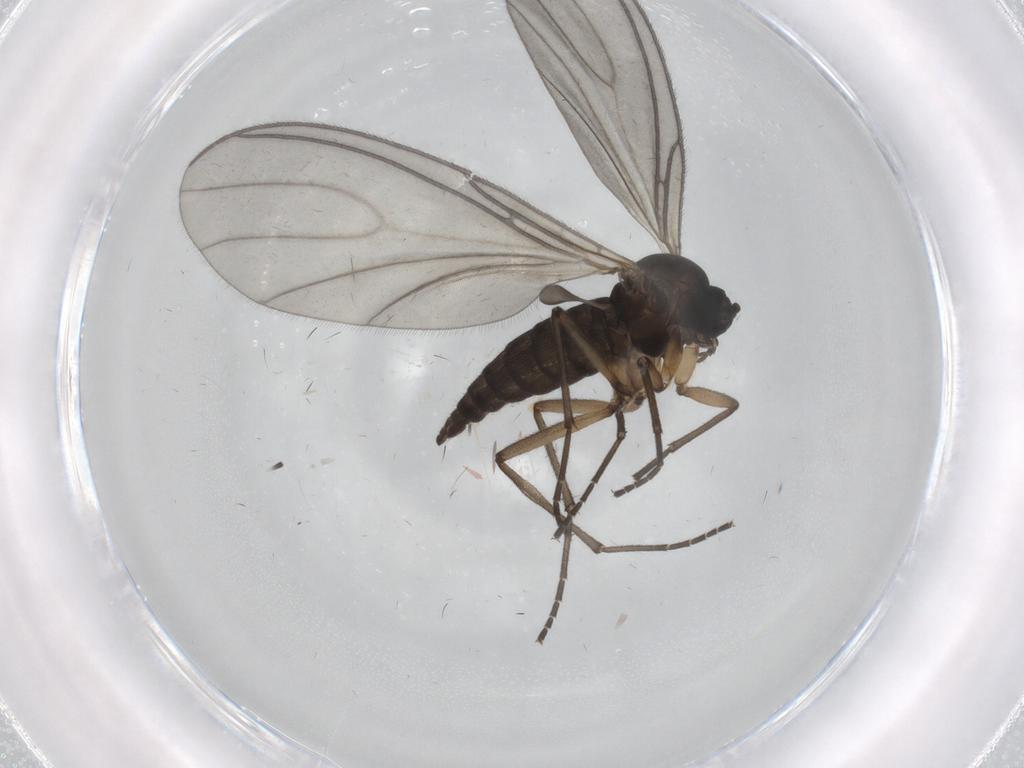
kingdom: Animalia
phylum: Arthropoda
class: Insecta
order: Diptera
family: Sciaridae
